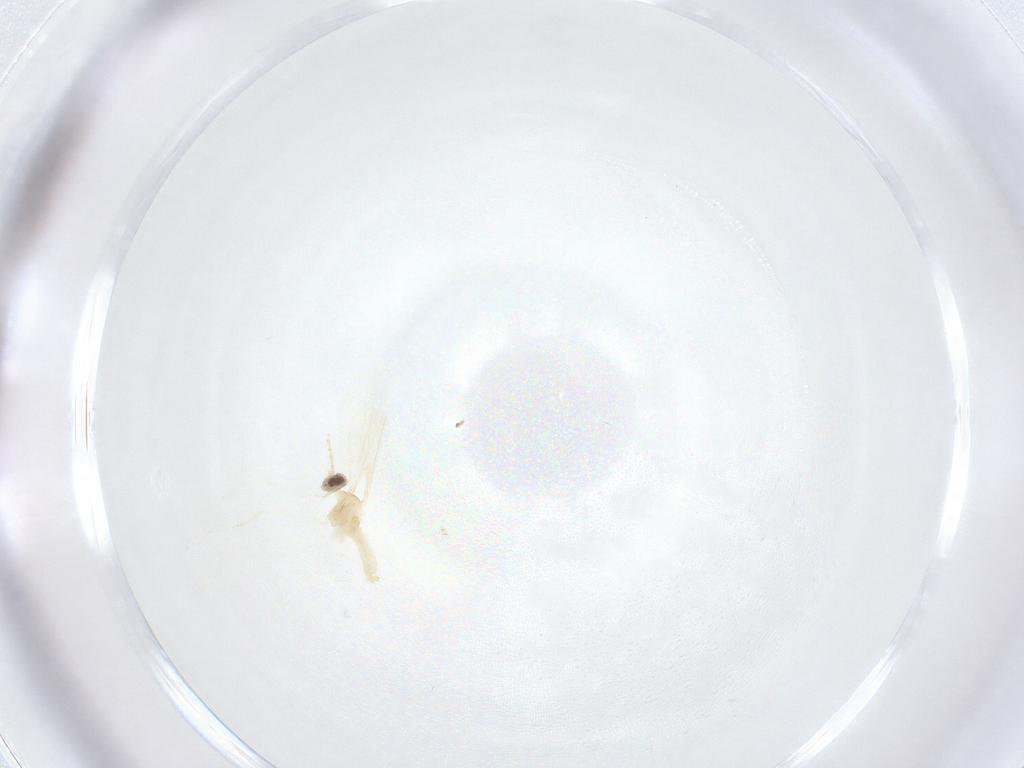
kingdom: Animalia
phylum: Arthropoda
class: Insecta
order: Diptera
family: Cecidomyiidae
